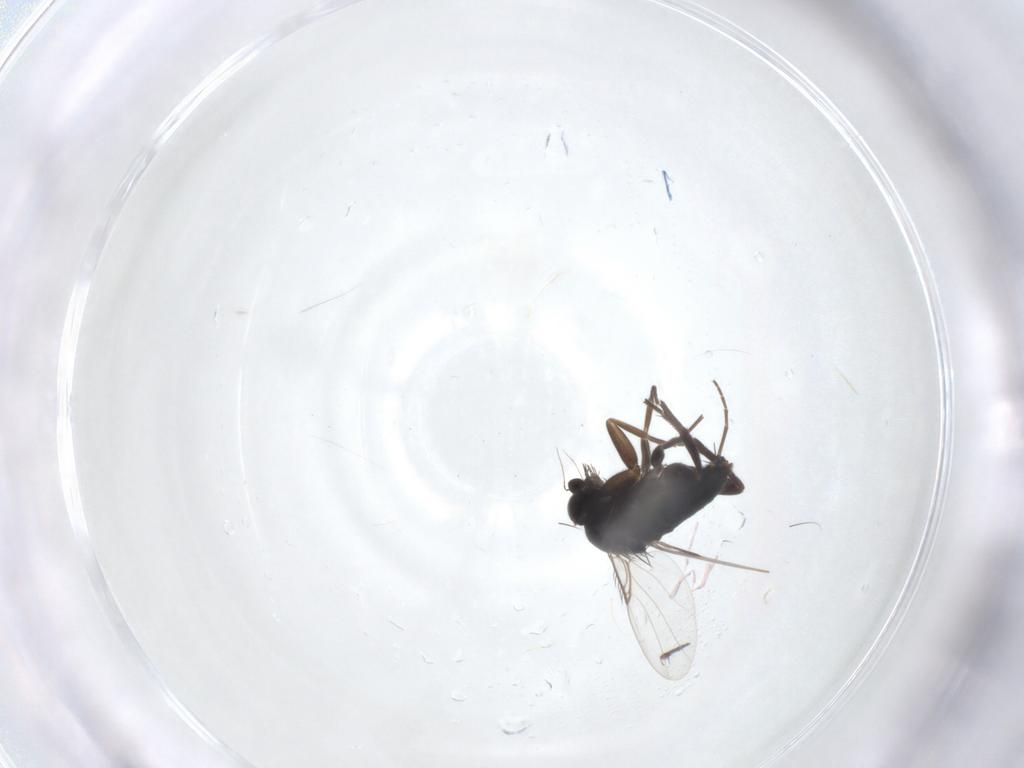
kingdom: Animalia
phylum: Arthropoda
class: Insecta
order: Diptera
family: Phoridae
